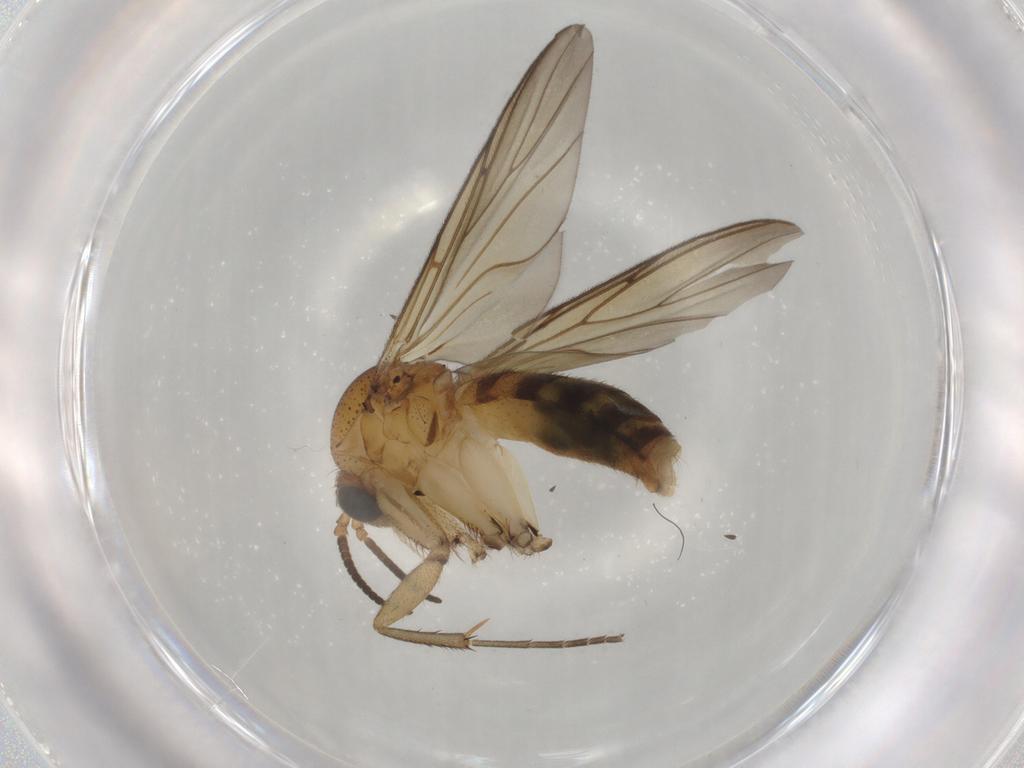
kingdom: Animalia
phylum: Arthropoda
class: Insecta
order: Diptera
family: Mycetophilidae
